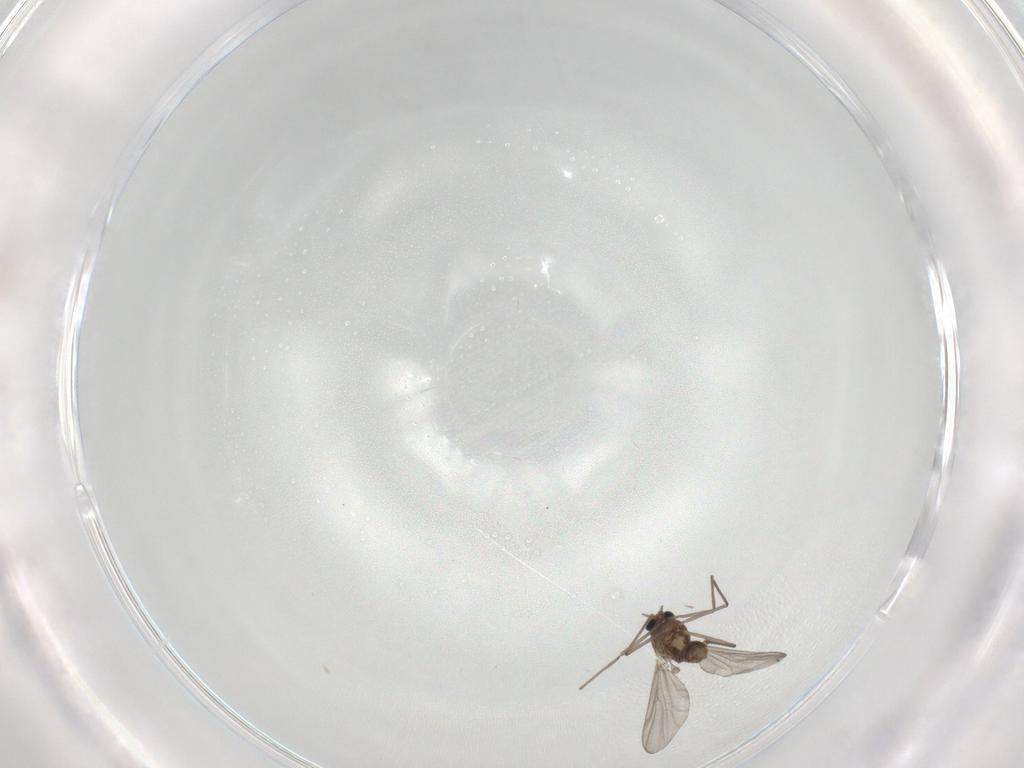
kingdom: Animalia
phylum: Arthropoda
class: Insecta
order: Diptera
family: Chironomidae
